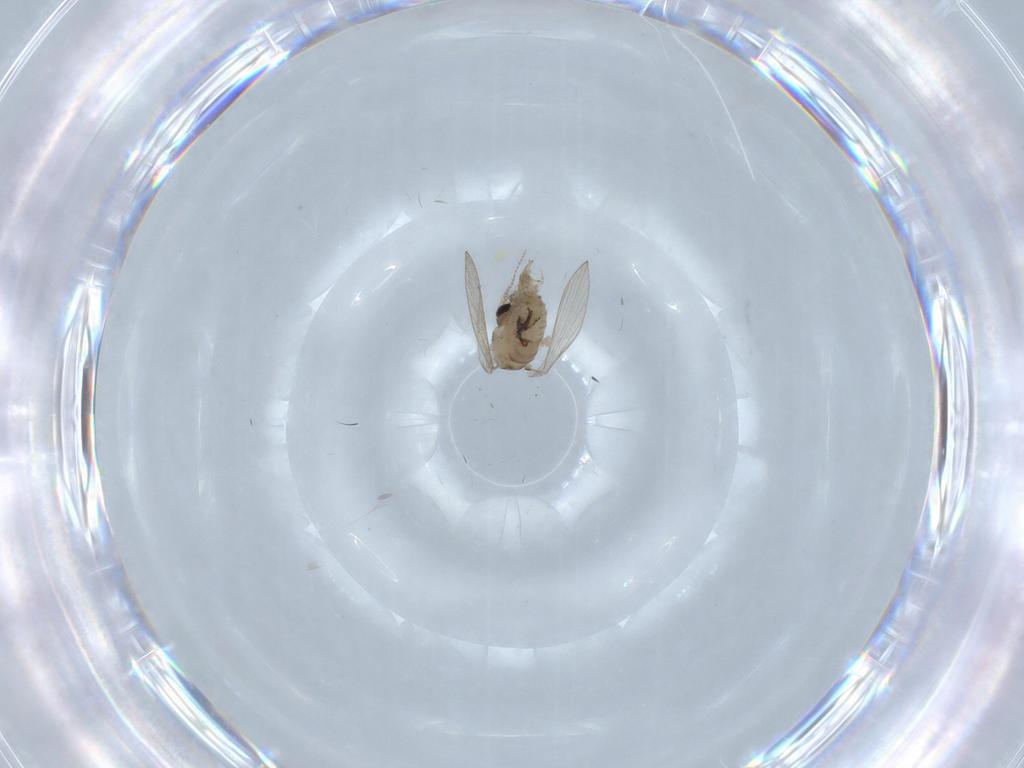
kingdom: Animalia
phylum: Arthropoda
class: Insecta
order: Diptera
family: Psychodidae
